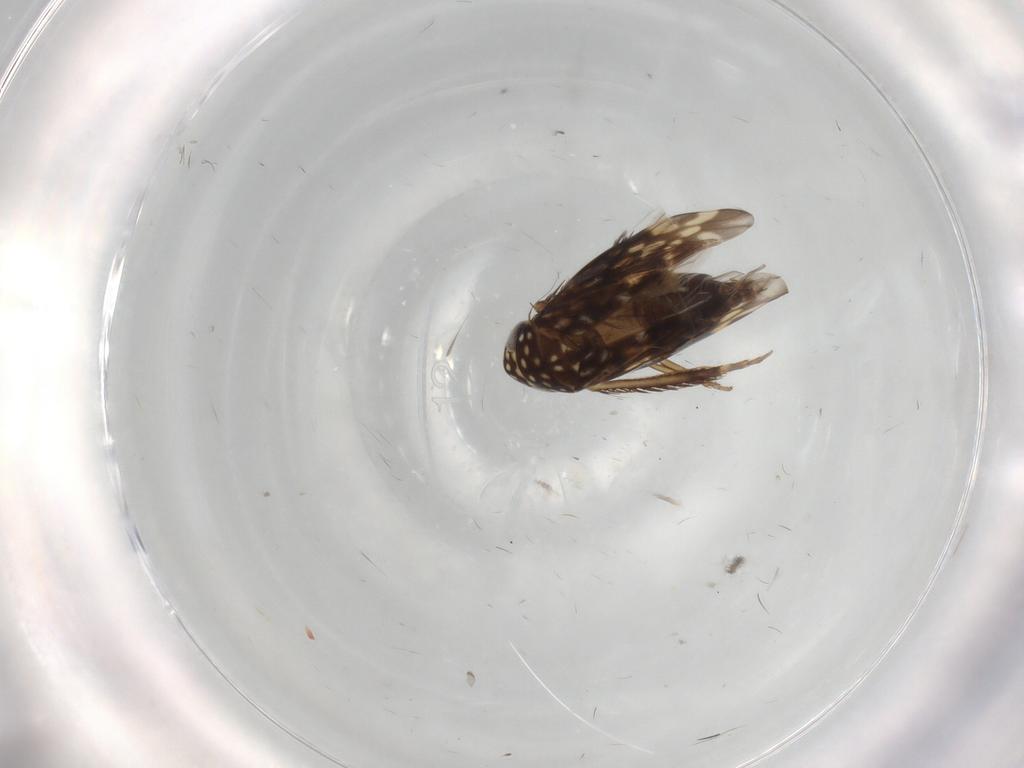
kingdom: Animalia
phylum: Arthropoda
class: Insecta
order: Hemiptera
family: Cicadellidae
